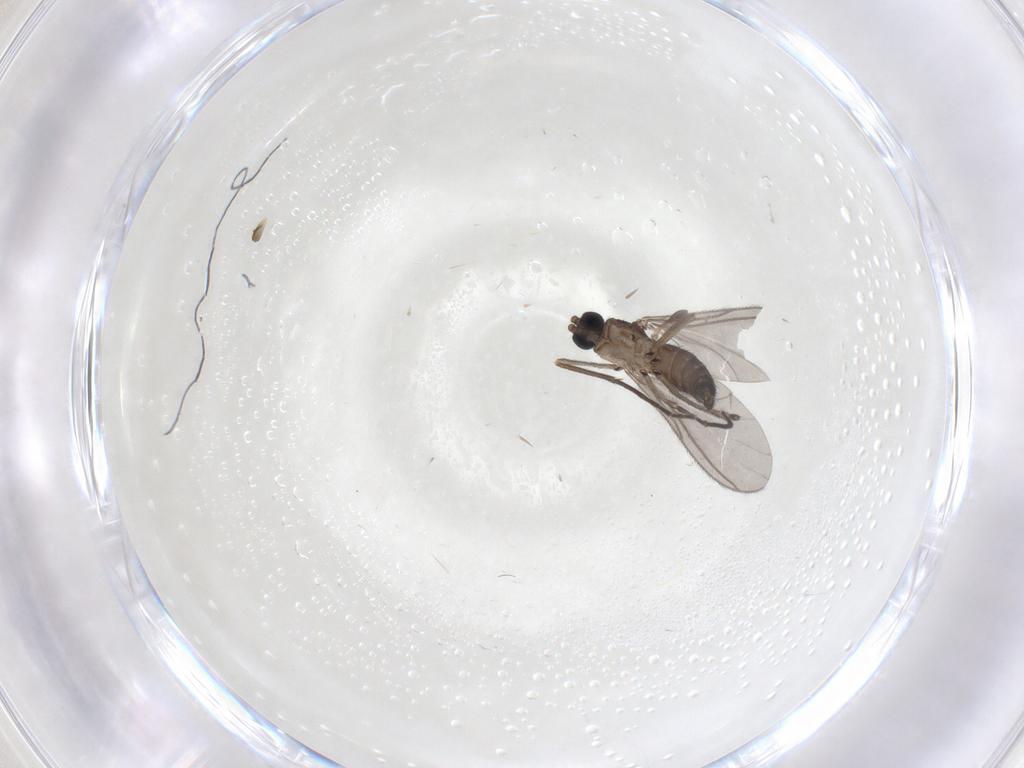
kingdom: Animalia
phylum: Arthropoda
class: Insecta
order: Diptera
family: Sciaridae
